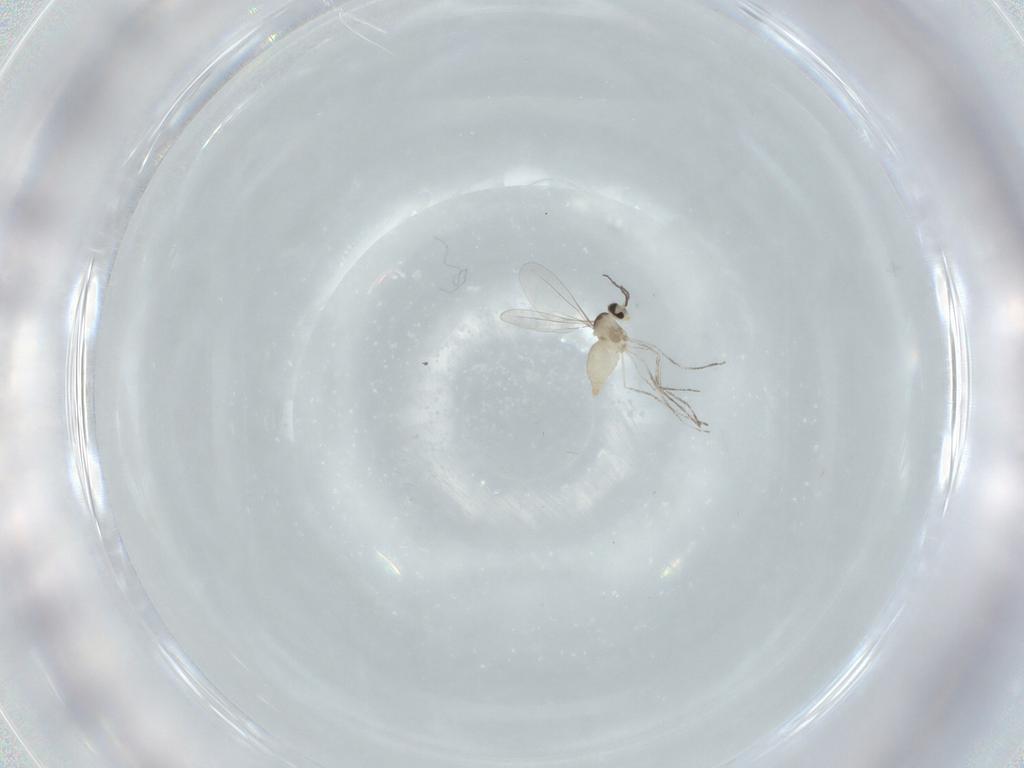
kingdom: Animalia
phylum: Arthropoda
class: Insecta
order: Diptera
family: Cecidomyiidae
